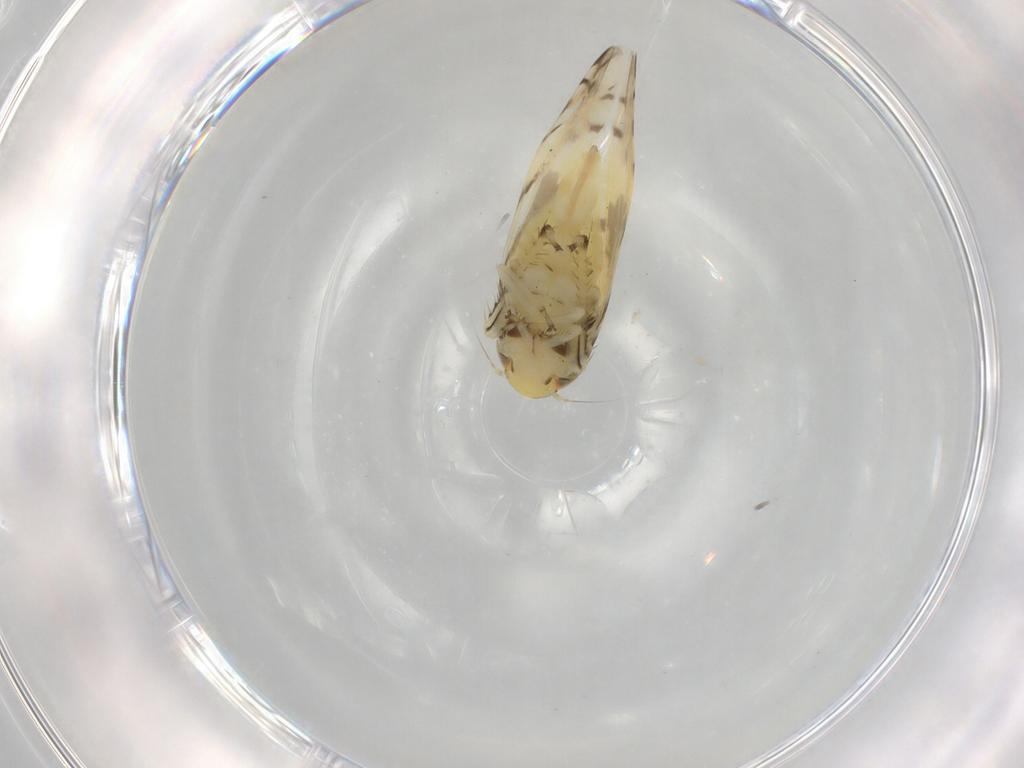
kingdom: Animalia
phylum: Arthropoda
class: Insecta
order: Hemiptera
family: Cicadellidae
